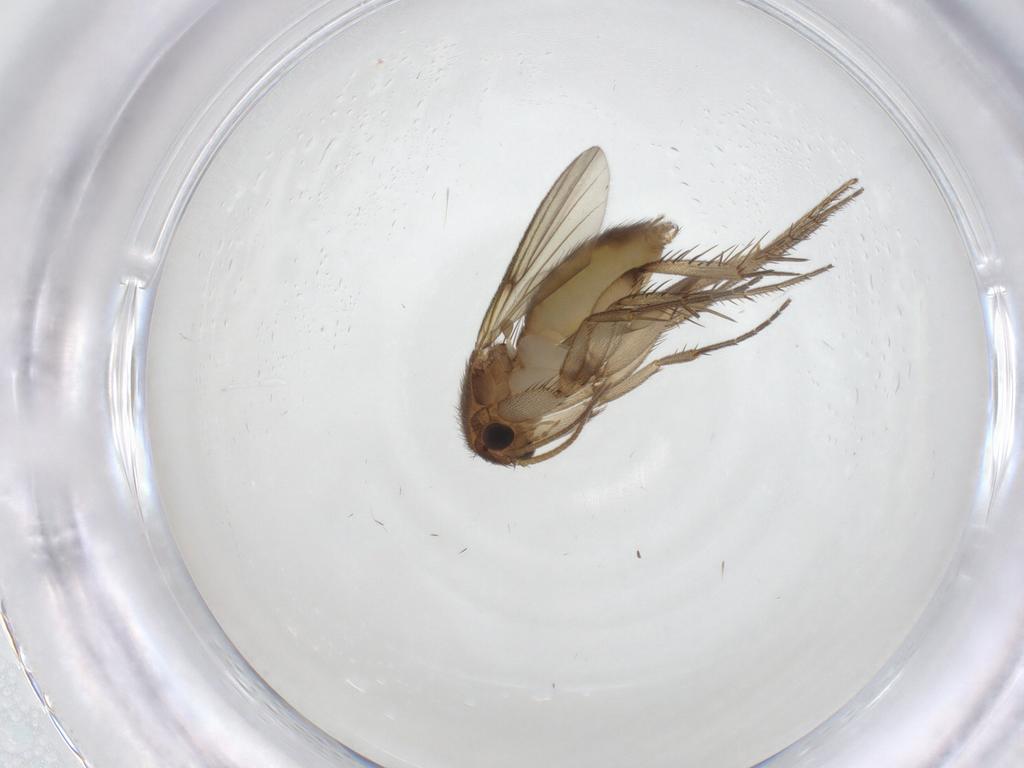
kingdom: Animalia
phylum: Arthropoda
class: Insecta
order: Diptera
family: Mycetophilidae
